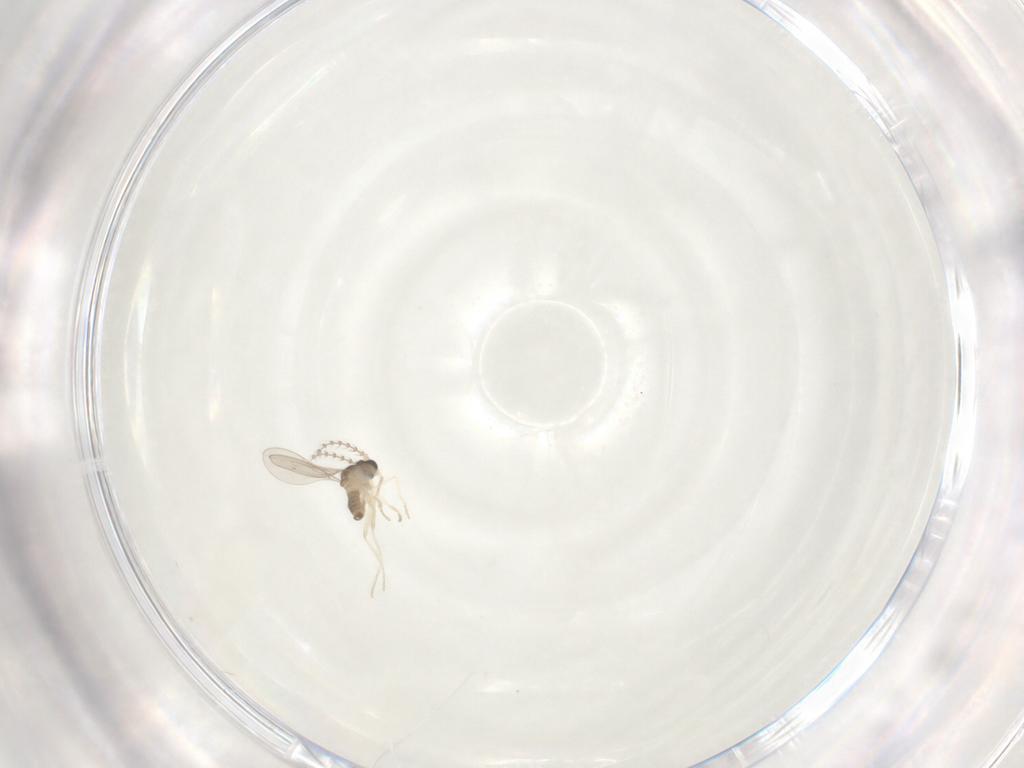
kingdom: Animalia
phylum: Arthropoda
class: Insecta
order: Diptera
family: Cecidomyiidae
